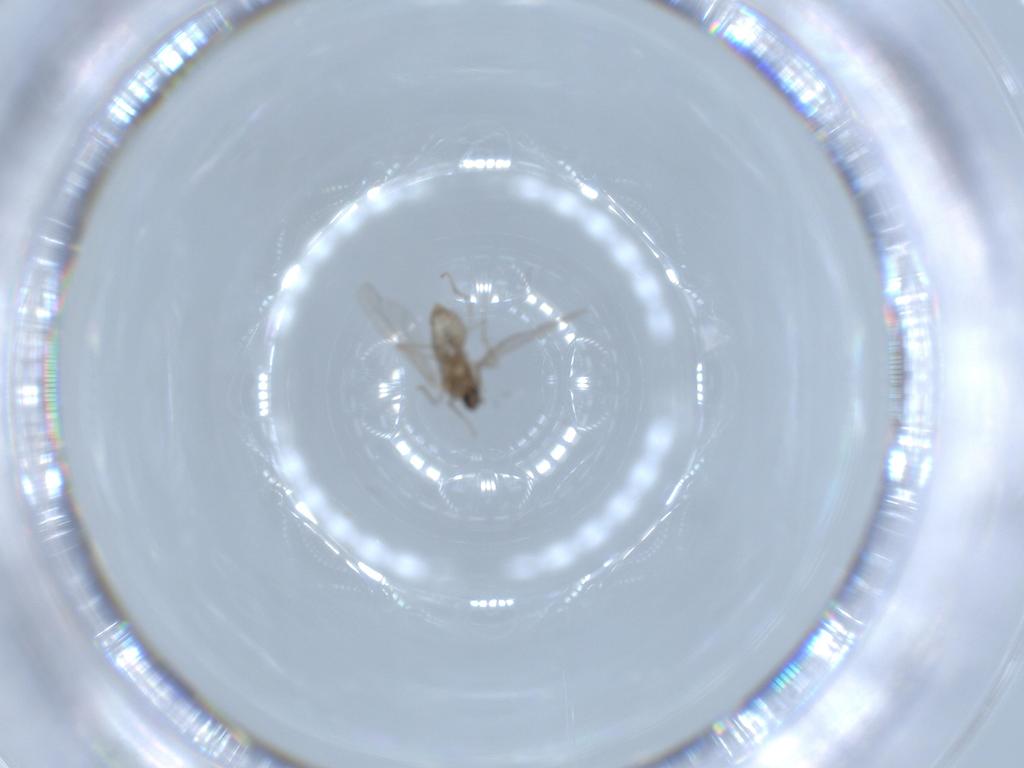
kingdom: Animalia
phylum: Arthropoda
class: Insecta
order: Diptera
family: Cecidomyiidae
